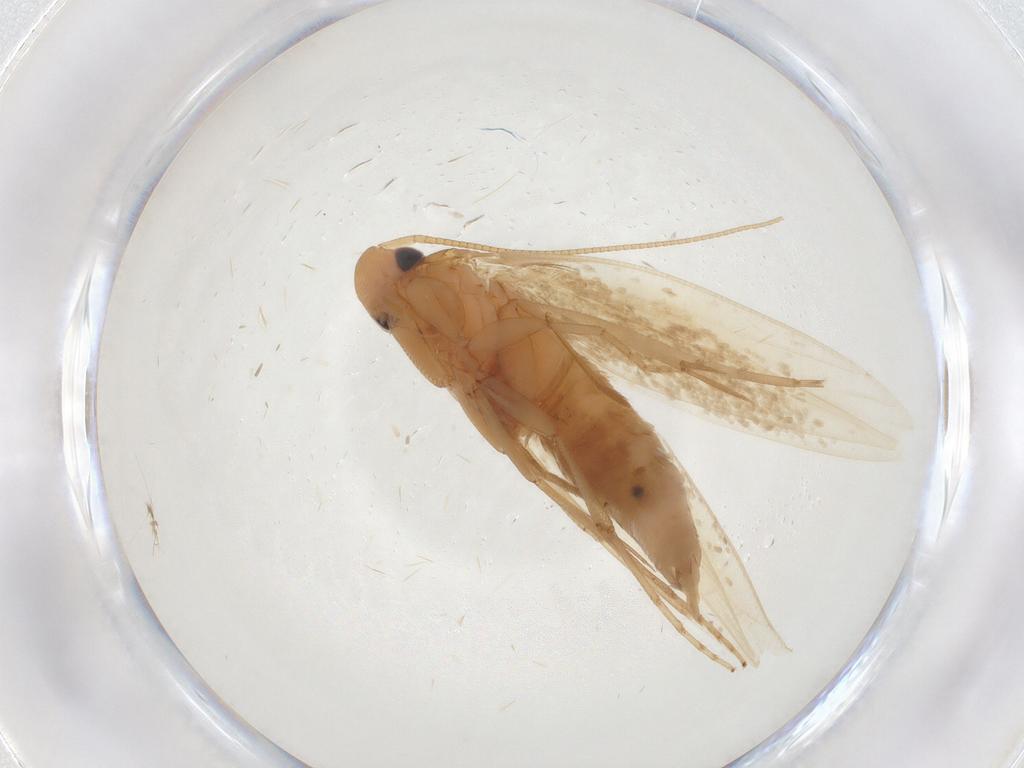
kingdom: Animalia
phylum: Arthropoda
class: Insecta
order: Lepidoptera
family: Tineidae
